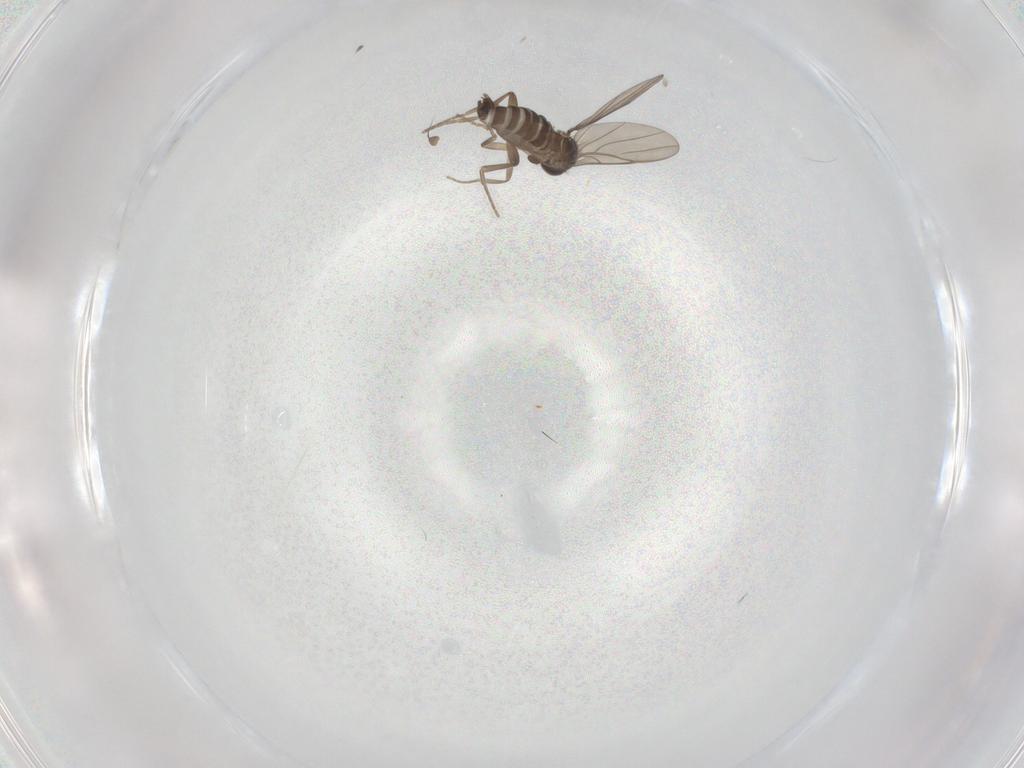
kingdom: Animalia
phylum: Arthropoda
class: Insecta
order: Diptera
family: Phoridae
